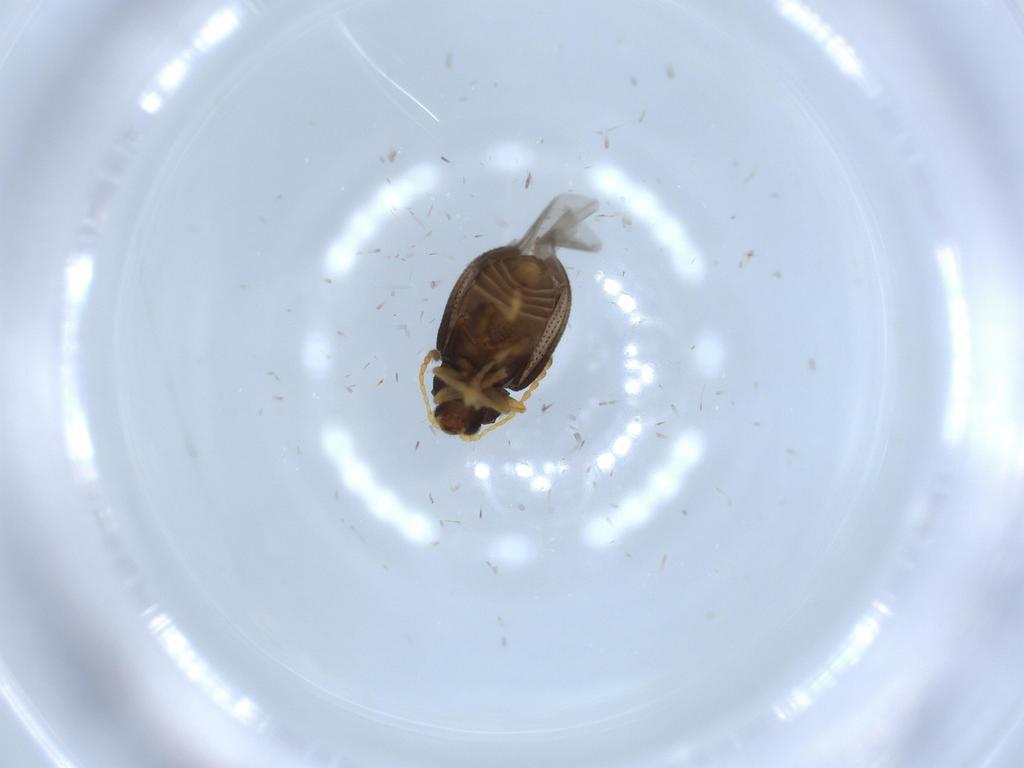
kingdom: Animalia
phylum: Arthropoda
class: Insecta
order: Coleoptera
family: Chrysomelidae
